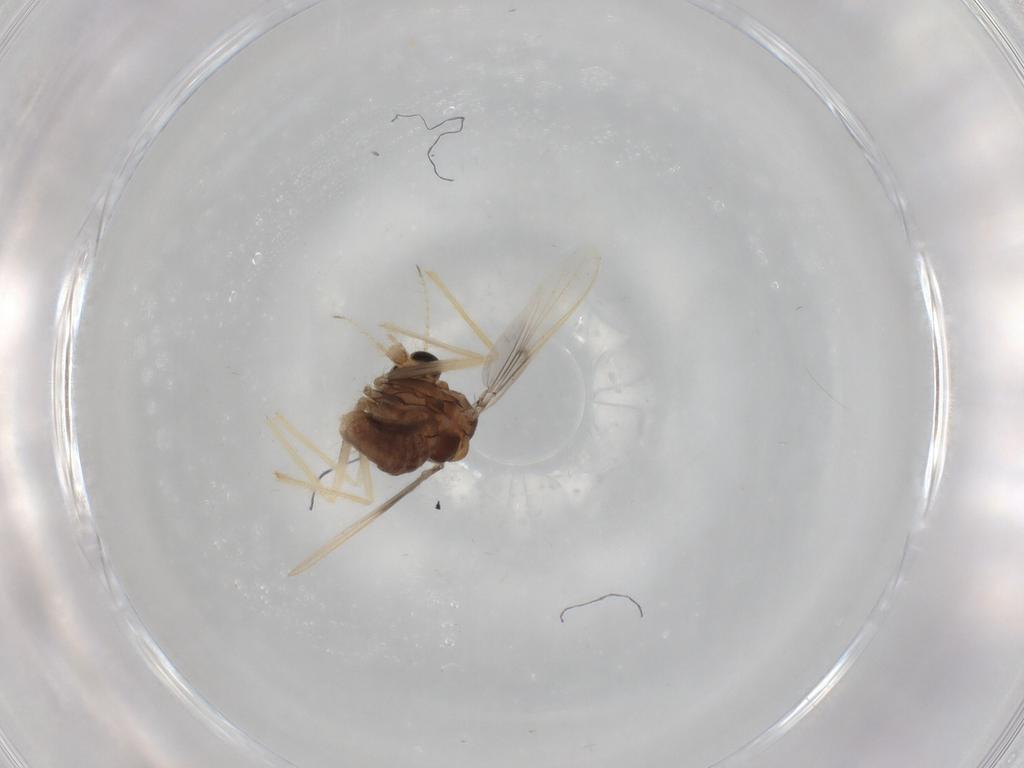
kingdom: Animalia
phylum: Arthropoda
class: Insecta
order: Diptera
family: Chironomidae
